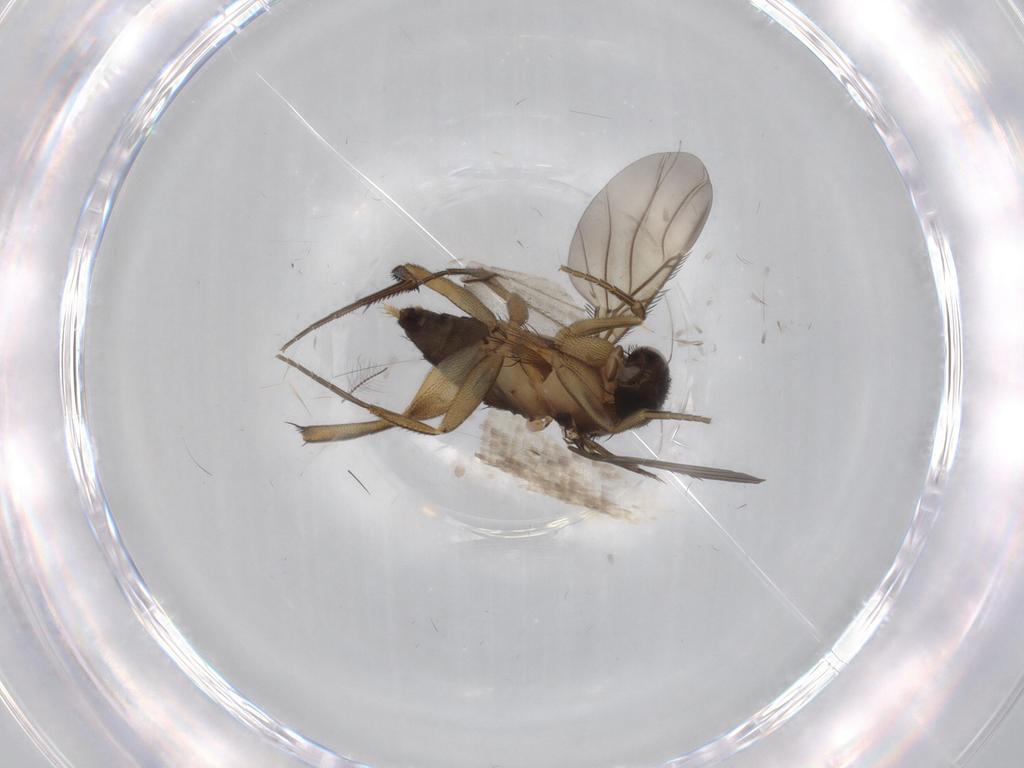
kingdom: Animalia
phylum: Arthropoda
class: Insecta
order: Diptera
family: Phoridae
